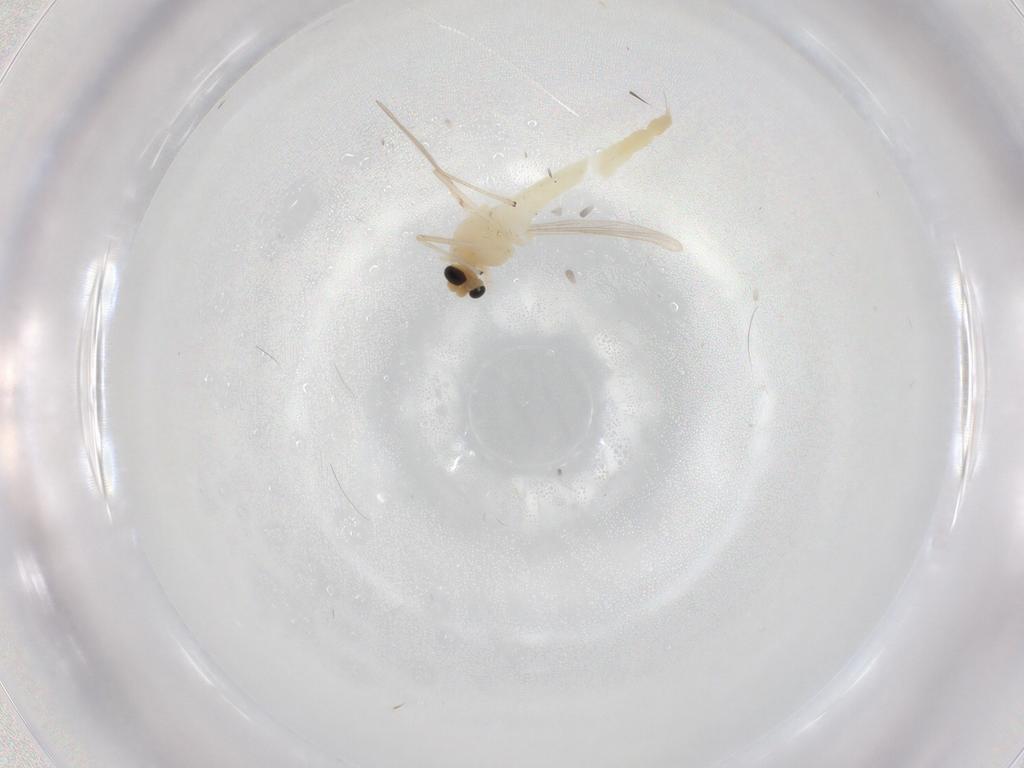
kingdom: Animalia
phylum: Arthropoda
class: Insecta
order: Diptera
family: Chironomidae
